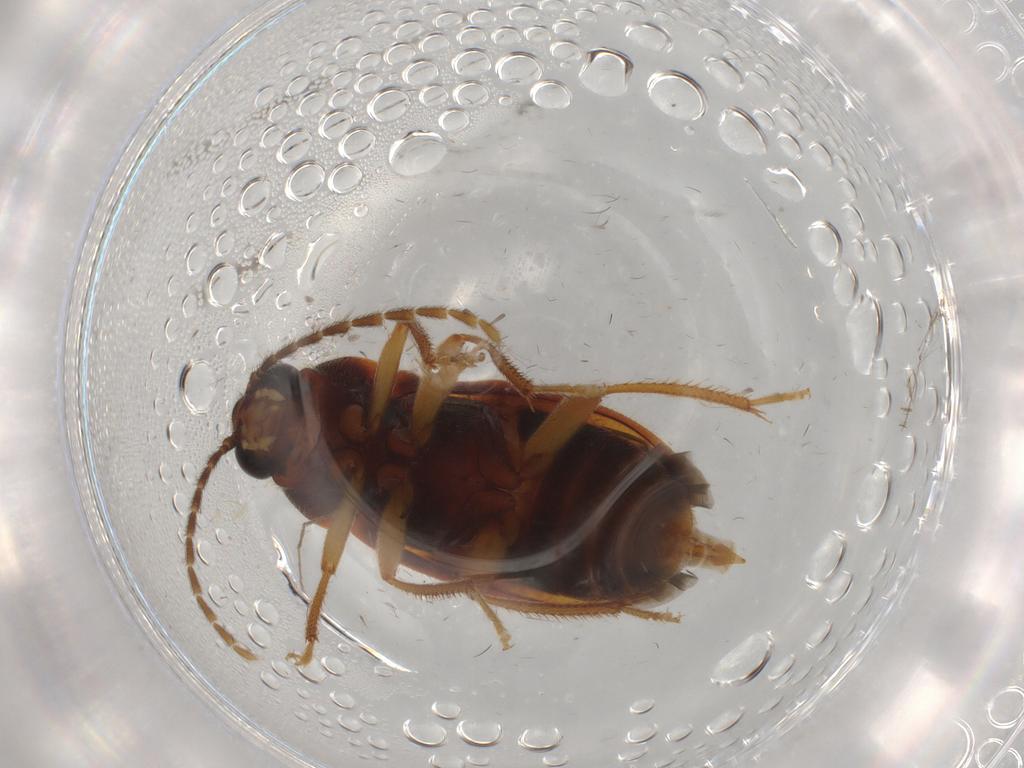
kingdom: Animalia
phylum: Arthropoda
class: Insecta
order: Coleoptera
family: Ptilodactylidae
